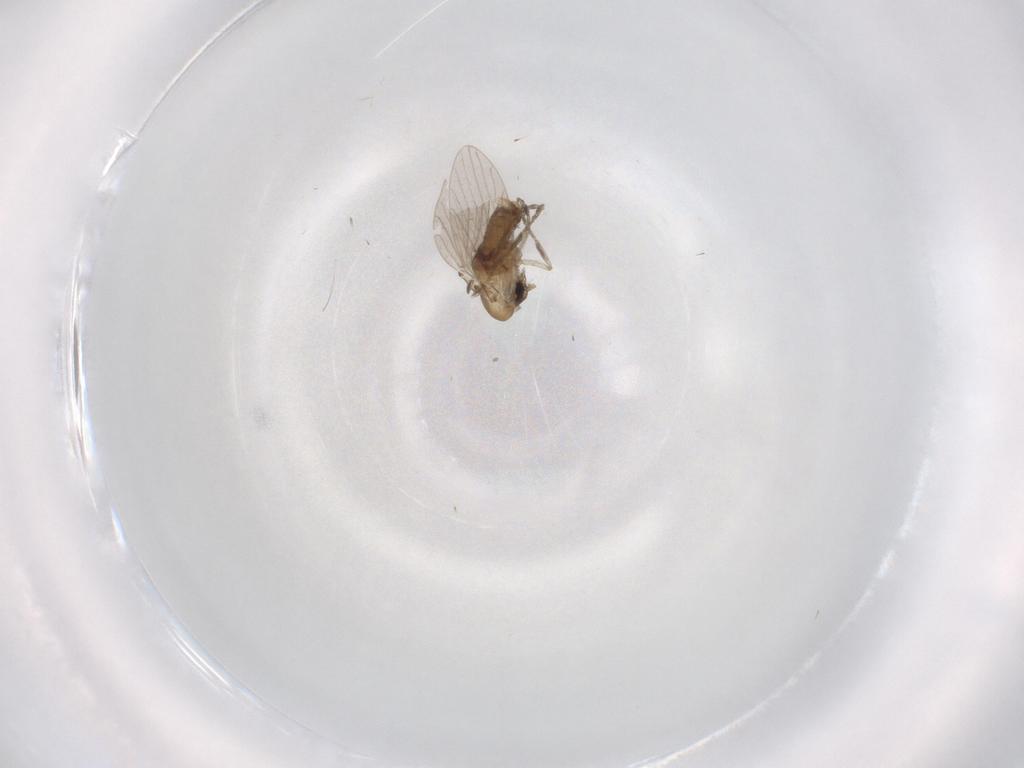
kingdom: Animalia
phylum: Arthropoda
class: Insecta
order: Diptera
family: Psychodidae
